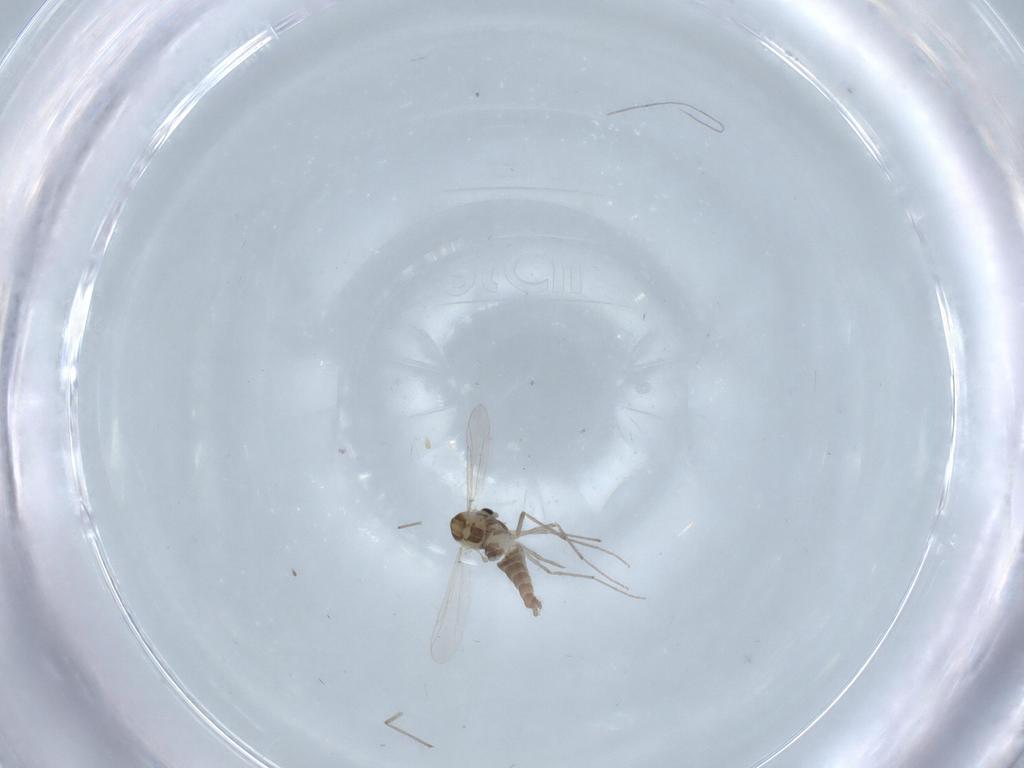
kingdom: Animalia
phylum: Arthropoda
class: Insecta
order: Diptera
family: Chironomidae
